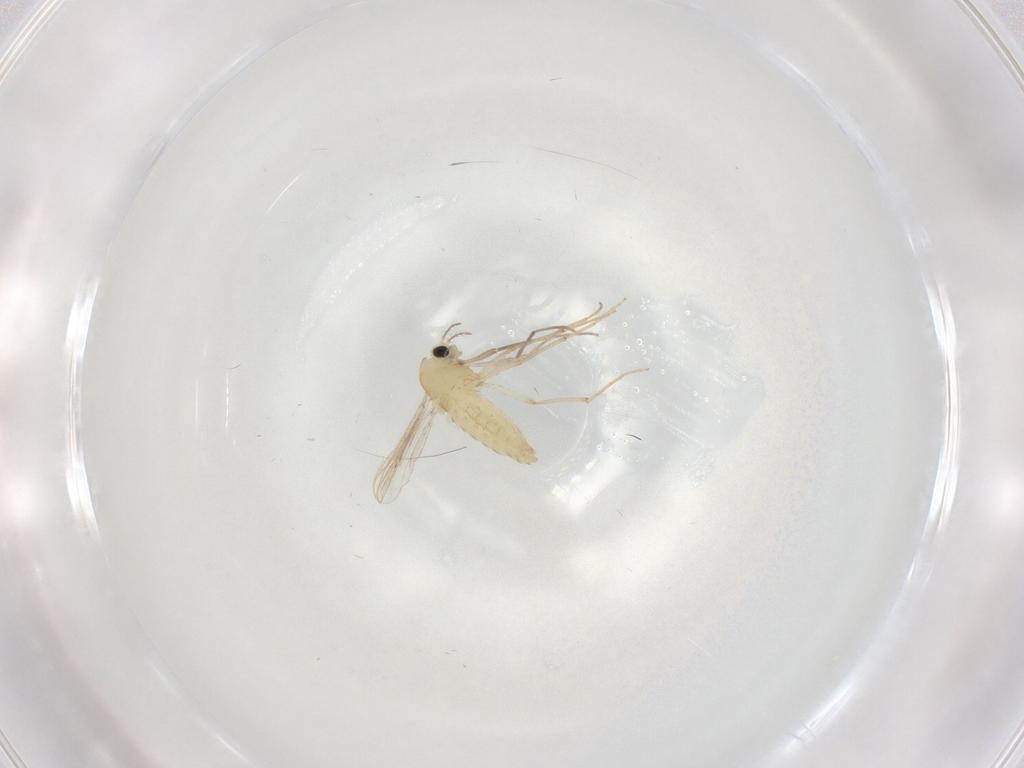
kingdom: Animalia
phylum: Arthropoda
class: Insecta
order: Diptera
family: Chironomidae
